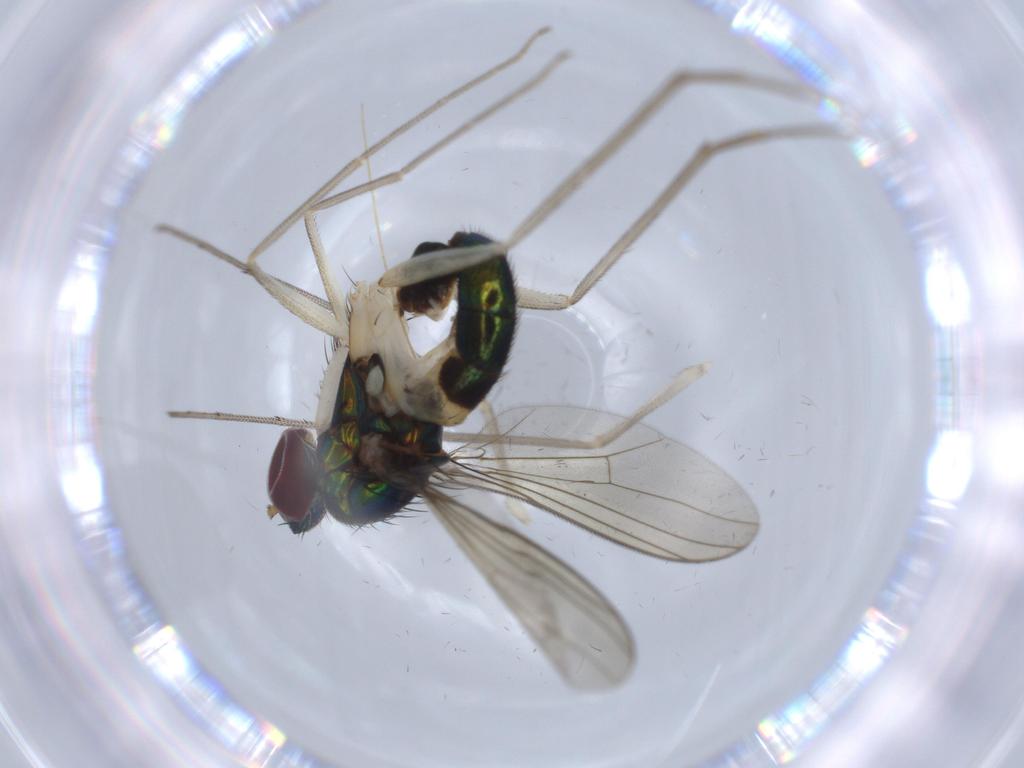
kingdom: Animalia
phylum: Arthropoda
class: Insecta
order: Diptera
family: Dolichopodidae
